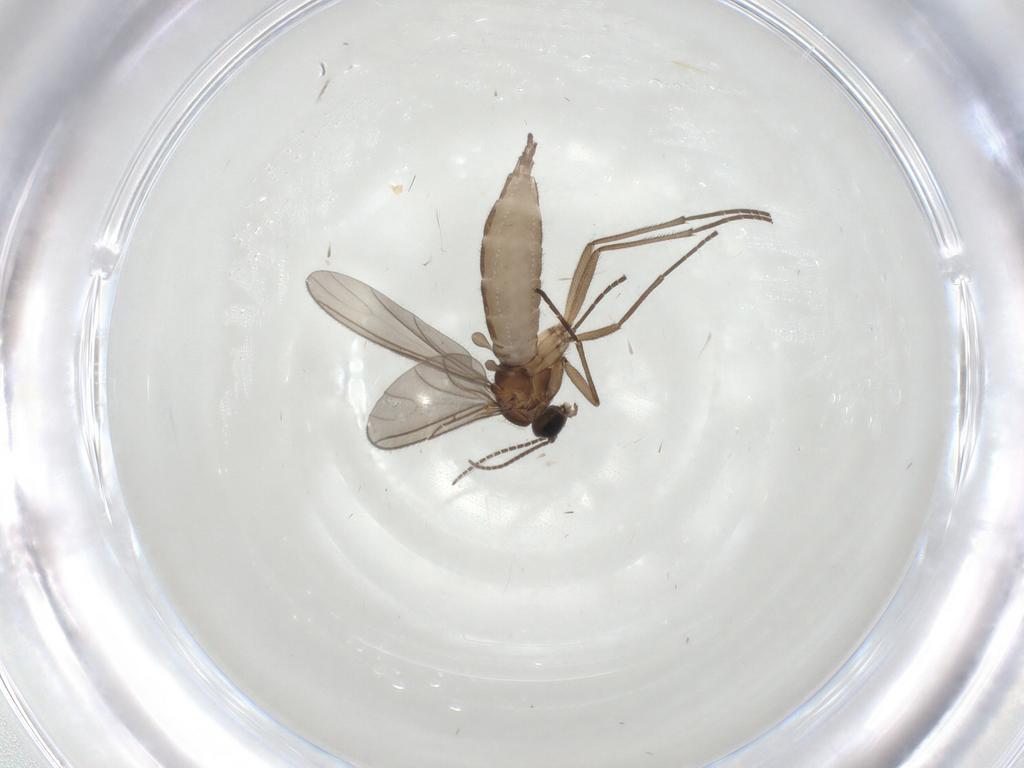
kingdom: Animalia
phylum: Arthropoda
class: Insecta
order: Diptera
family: Sciaridae
